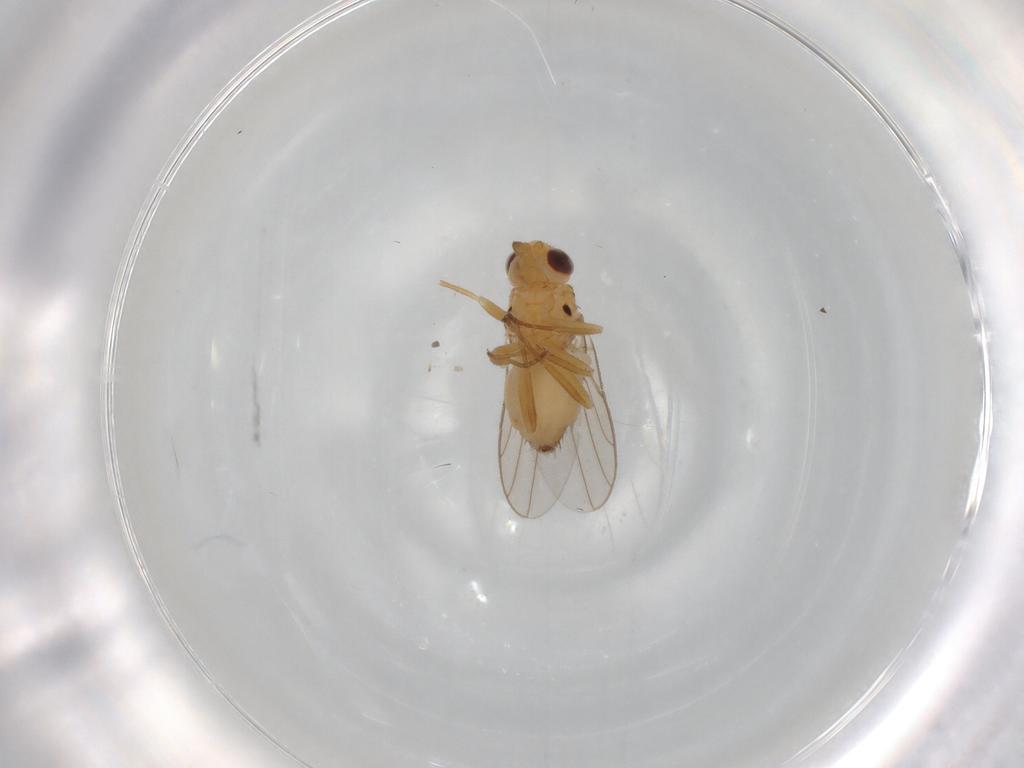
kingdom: Animalia
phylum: Arthropoda
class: Insecta
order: Diptera
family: Chloropidae
